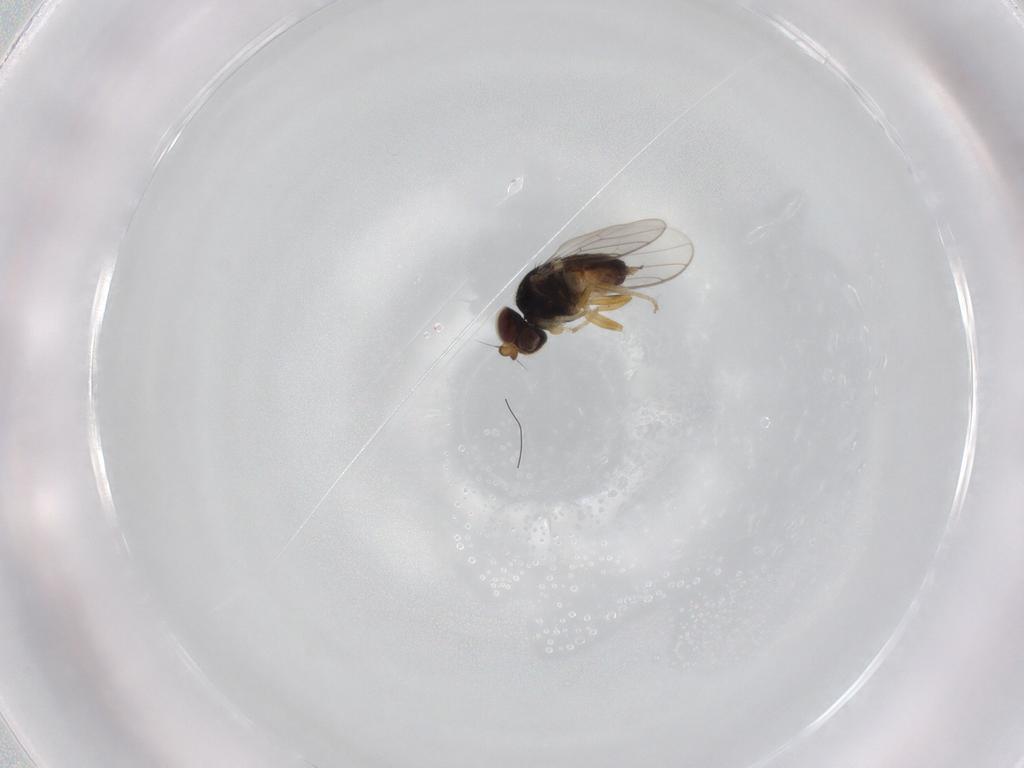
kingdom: Animalia
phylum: Arthropoda
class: Insecta
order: Diptera
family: Chloropidae
